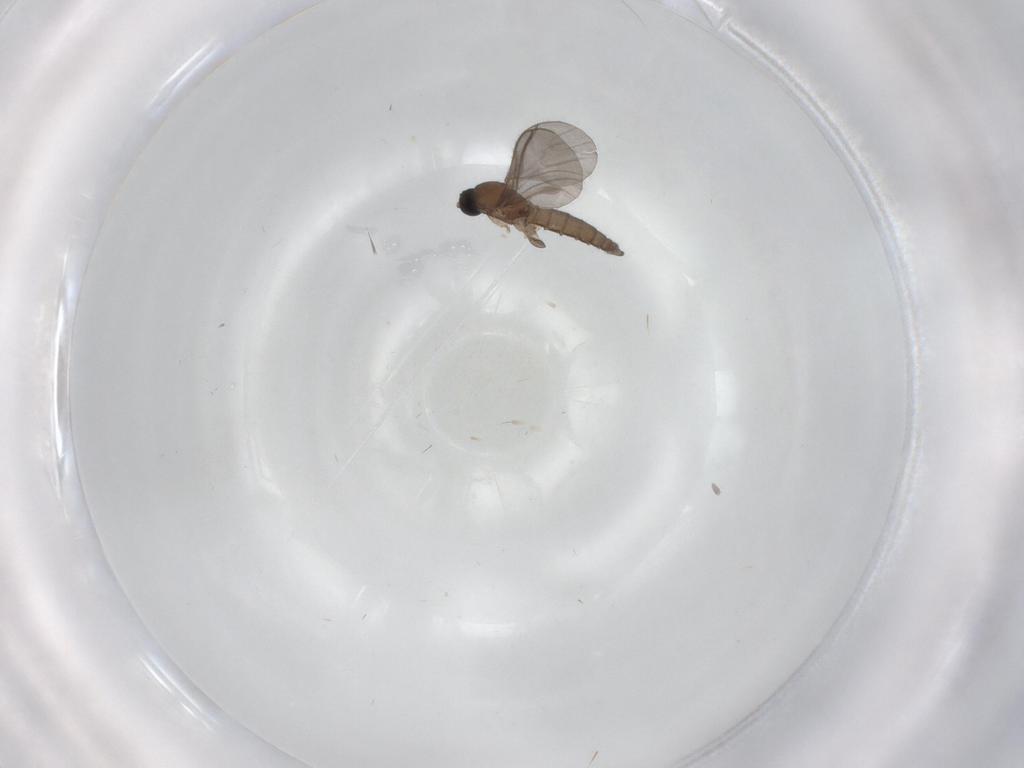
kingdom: Animalia
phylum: Arthropoda
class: Insecta
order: Diptera
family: Sciaridae
